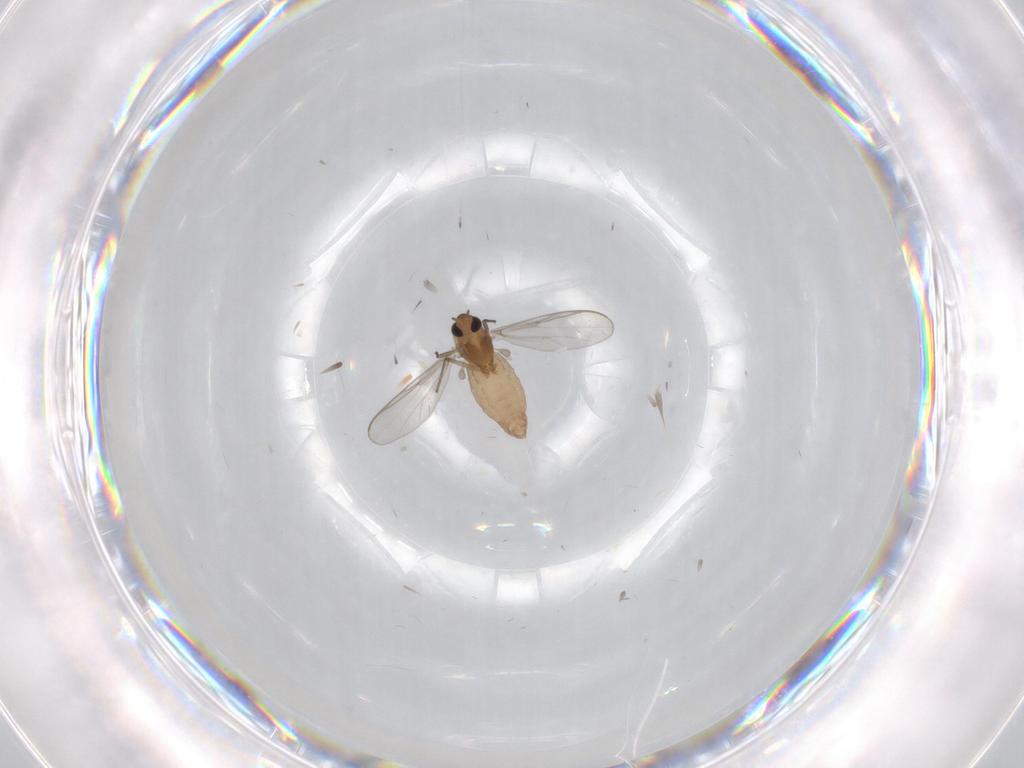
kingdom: Animalia
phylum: Arthropoda
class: Insecta
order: Diptera
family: Chironomidae
